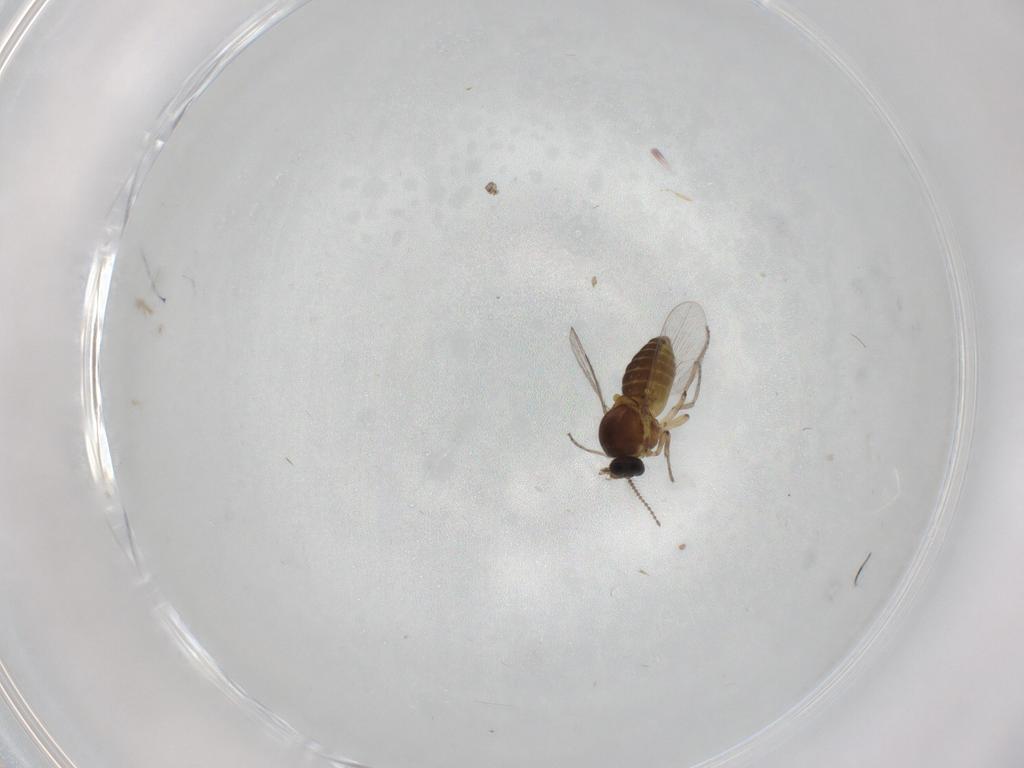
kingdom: Animalia
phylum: Arthropoda
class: Insecta
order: Diptera
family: Ceratopogonidae
